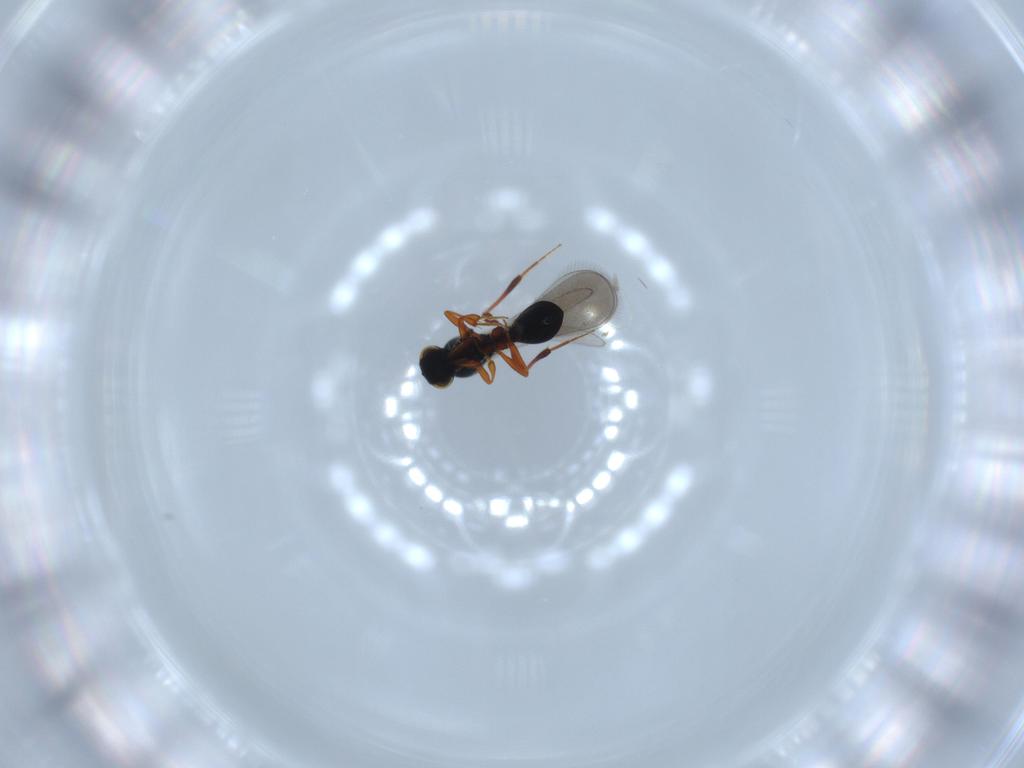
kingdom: Animalia
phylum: Arthropoda
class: Insecta
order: Hymenoptera
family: Platygastridae
